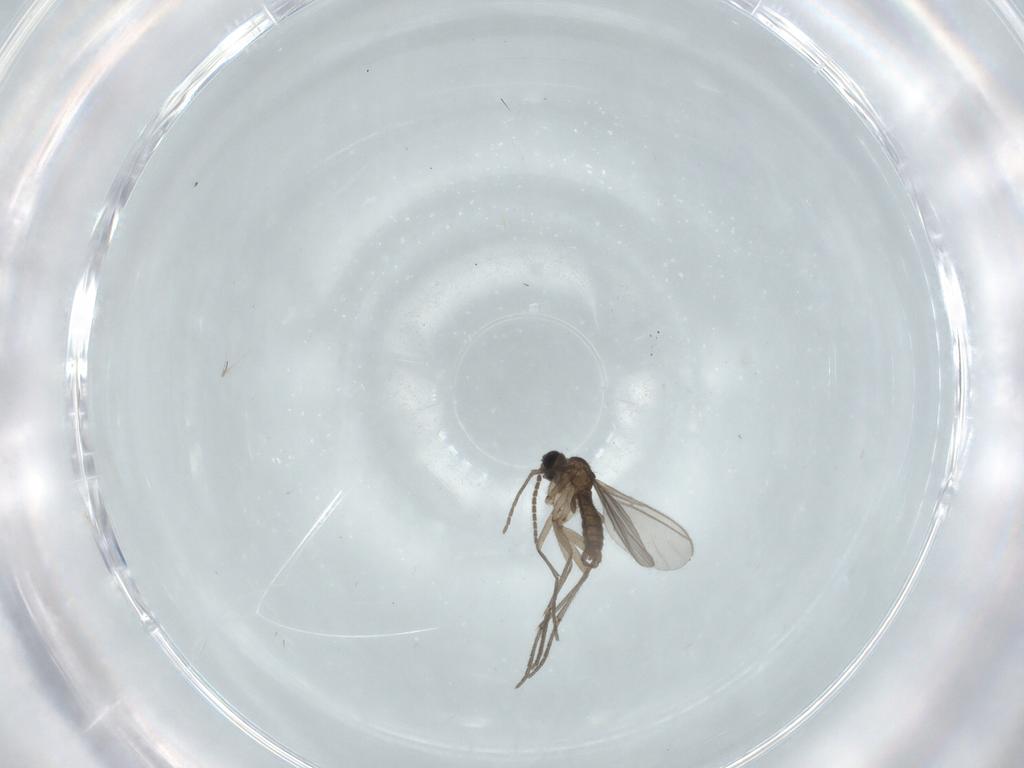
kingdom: Animalia
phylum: Arthropoda
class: Insecta
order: Diptera
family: Sciaridae
